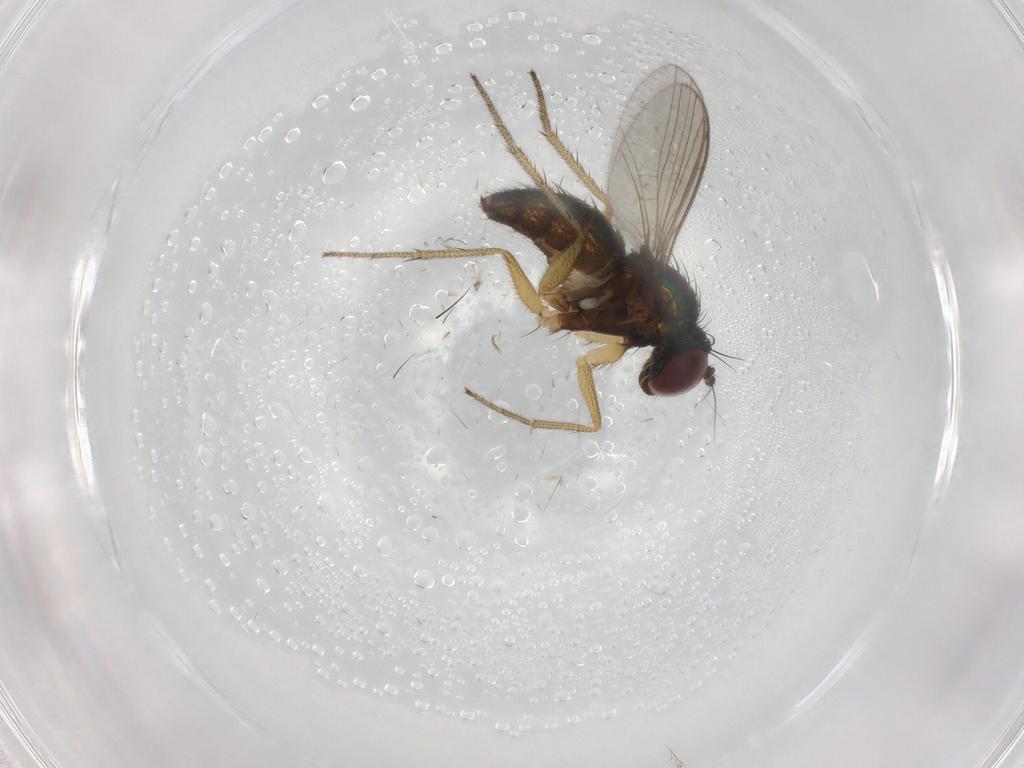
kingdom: Animalia
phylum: Arthropoda
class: Insecta
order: Diptera
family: Dolichopodidae
